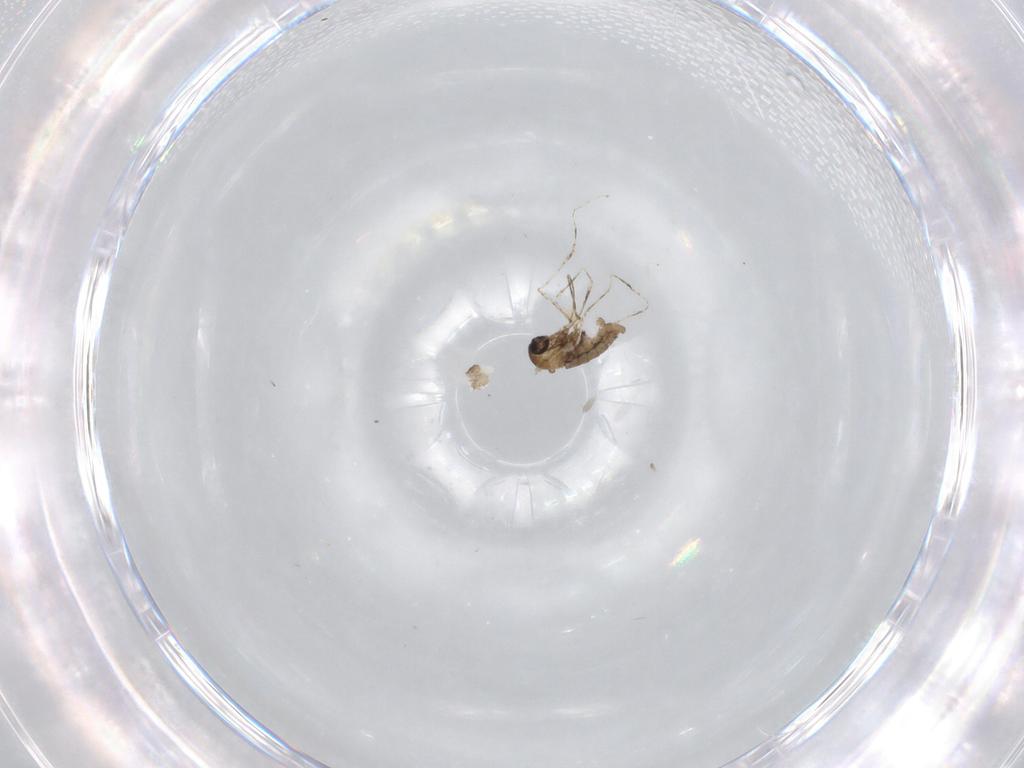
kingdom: Animalia
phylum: Arthropoda
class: Insecta
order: Diptera
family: Cecidomyiidae
